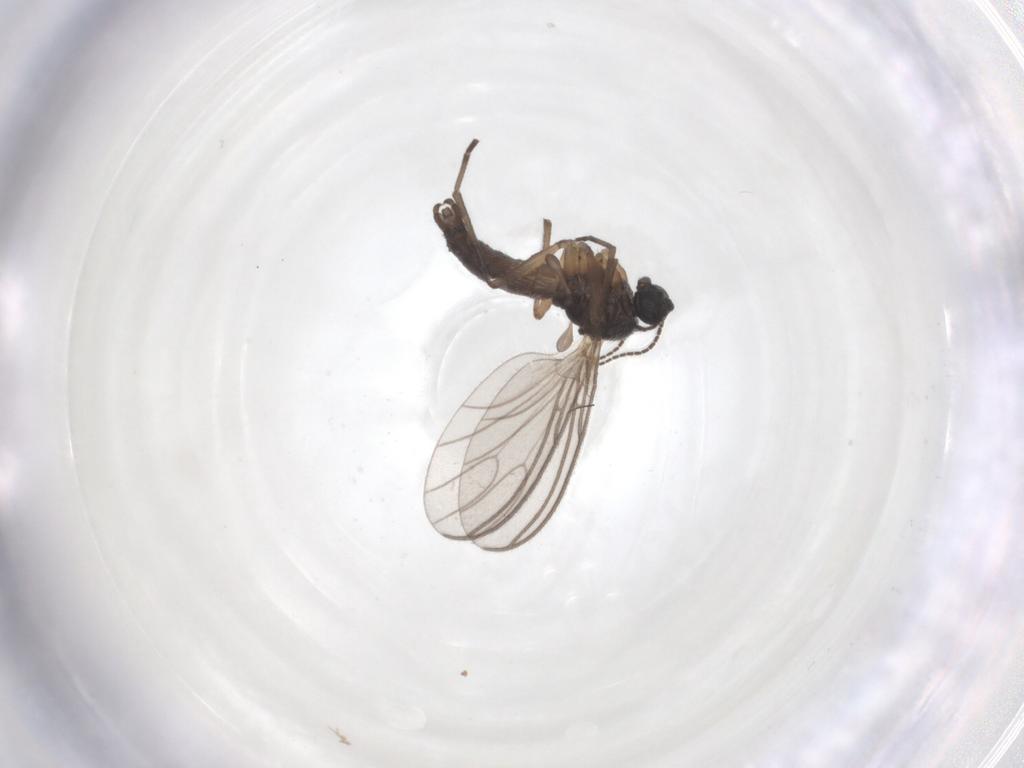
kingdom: Animalia
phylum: Arthropoda
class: Insecta
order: Diptera
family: Sciaridae
